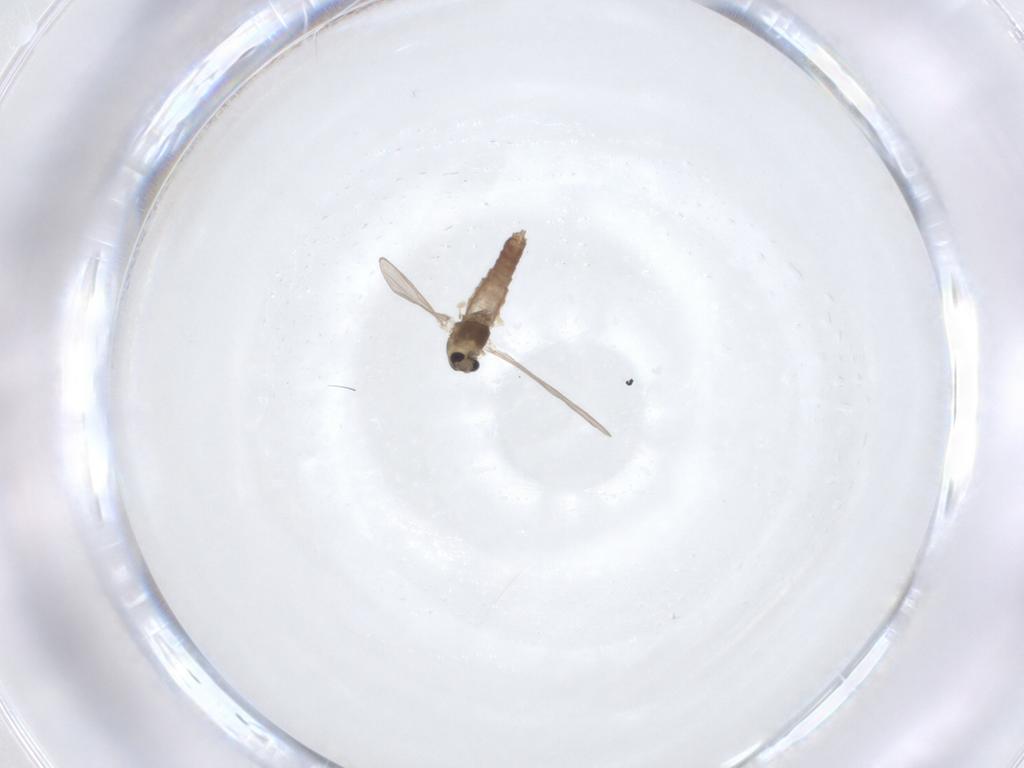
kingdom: Animalia
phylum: Arthropoda
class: Insecta
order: Diptera
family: Chironomidae
